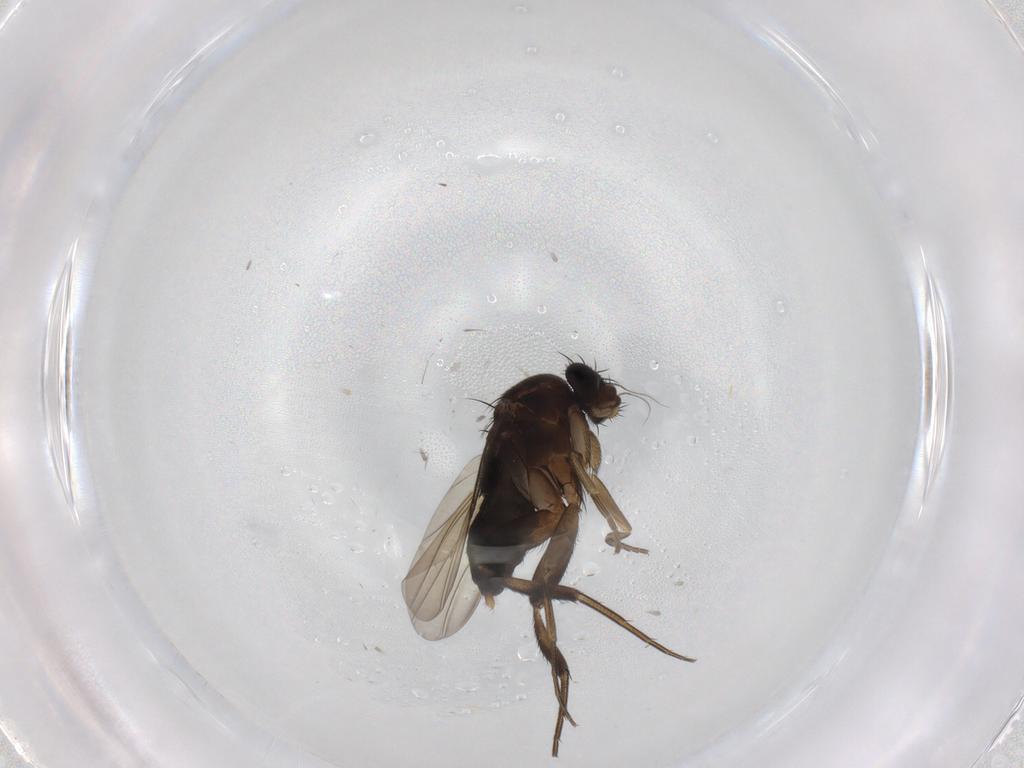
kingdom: Animalia
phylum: Arthropoda
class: Insecta
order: Diptera
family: Phoridae
